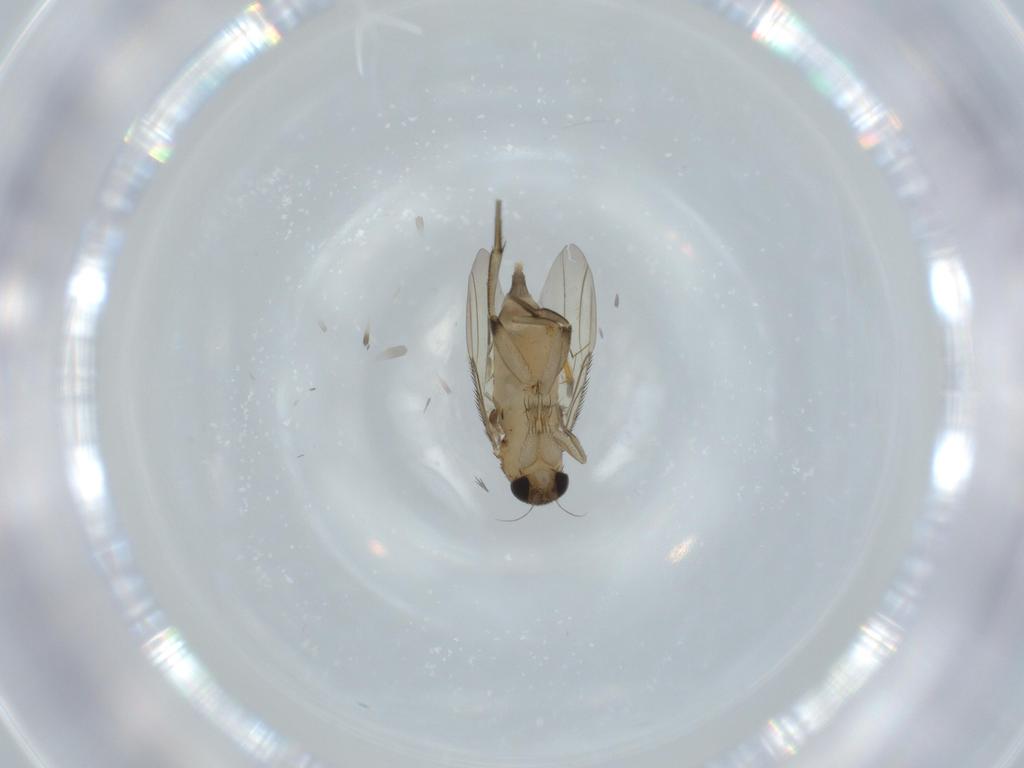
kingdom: Animalia
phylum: Arthropoda
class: Insecta
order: Diptera
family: Phoridae
